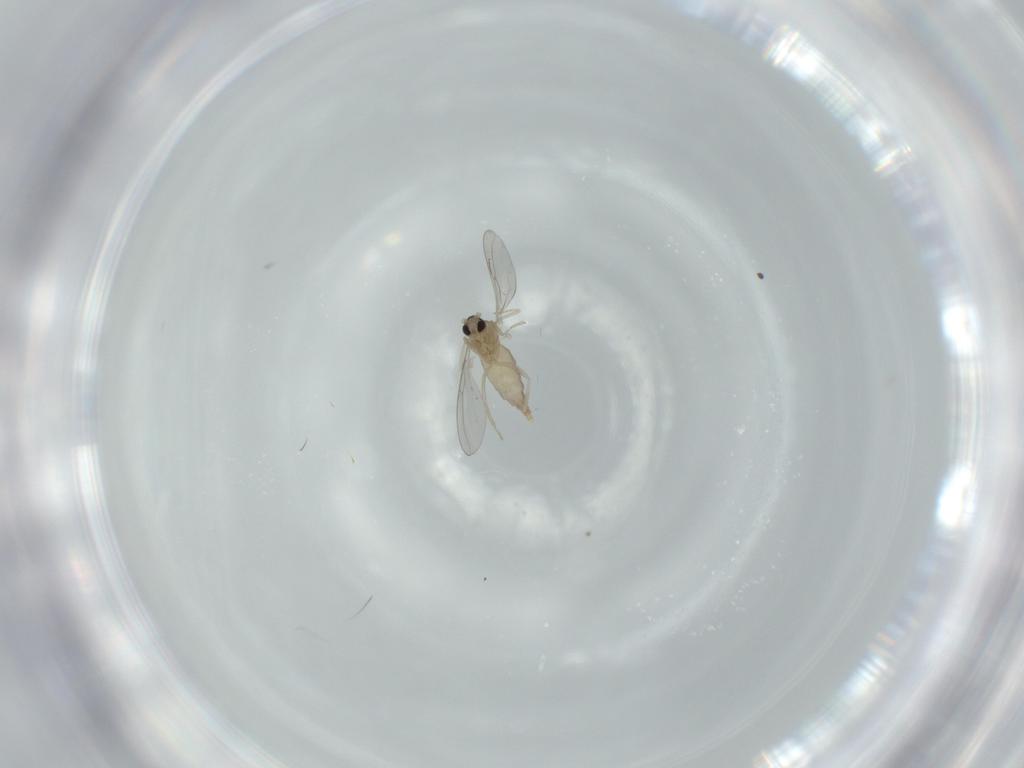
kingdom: Animalia
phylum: Arthropoda
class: Insecta
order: Diptera
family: Cecidomyiidae
